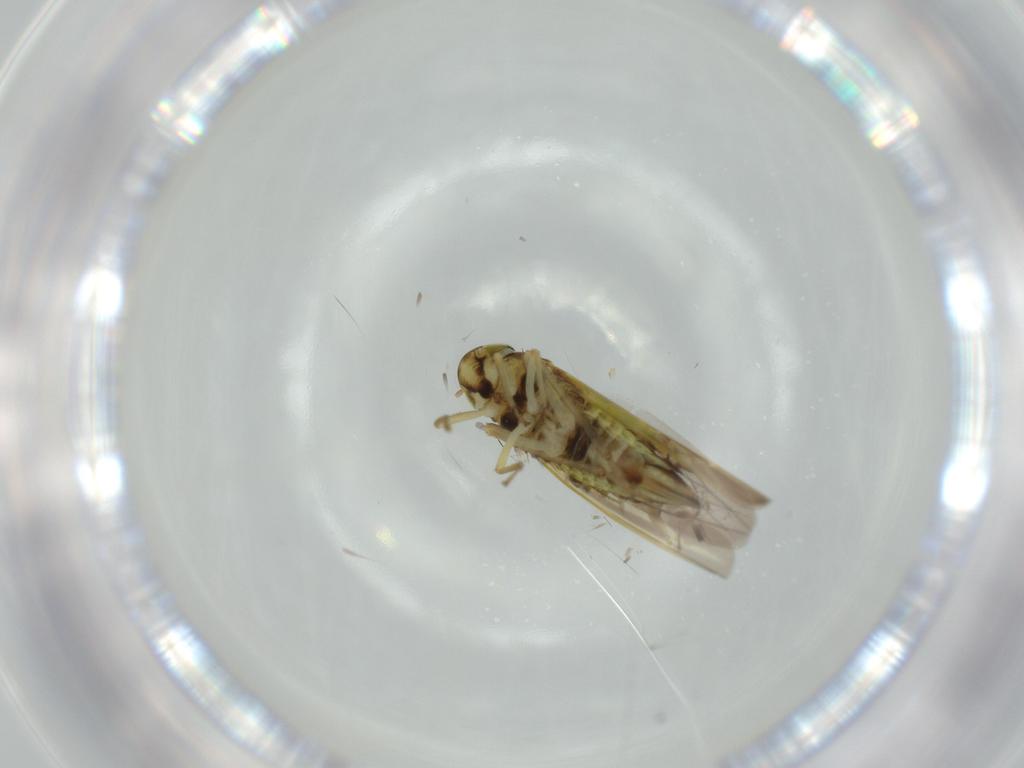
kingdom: Animalia
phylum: Arthropoda
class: Insecta
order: Hemiptera
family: Cicadellidae
